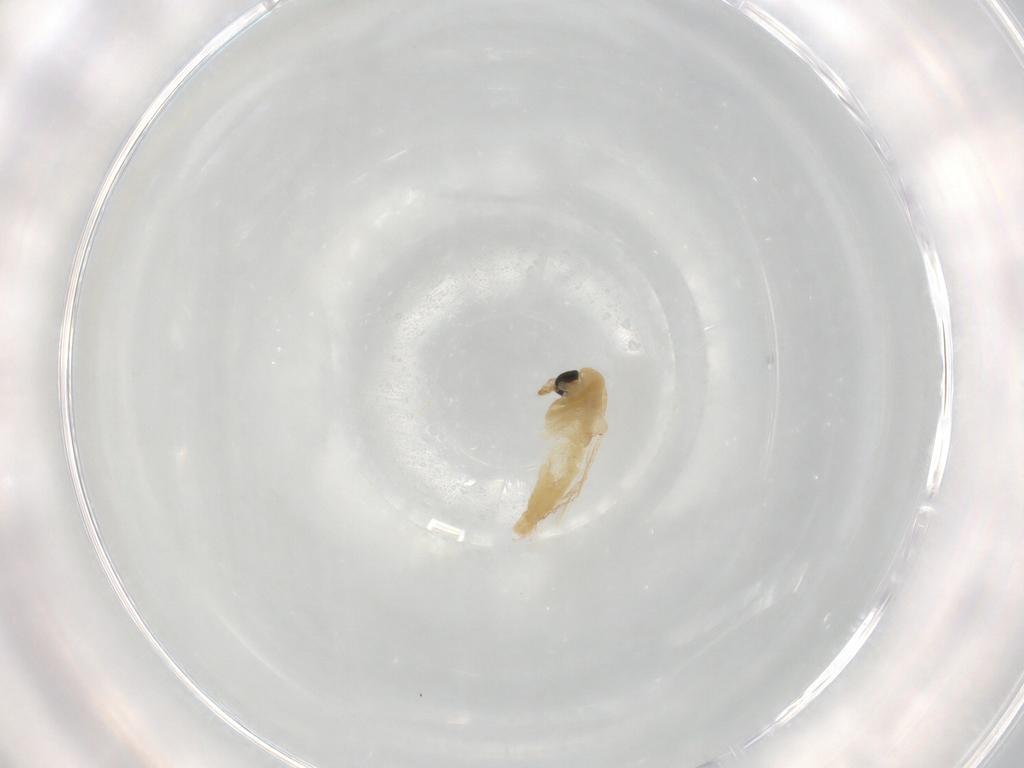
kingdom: Animalia
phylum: Arthropoda
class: Insecta
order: Diptera
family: Chironomidae
